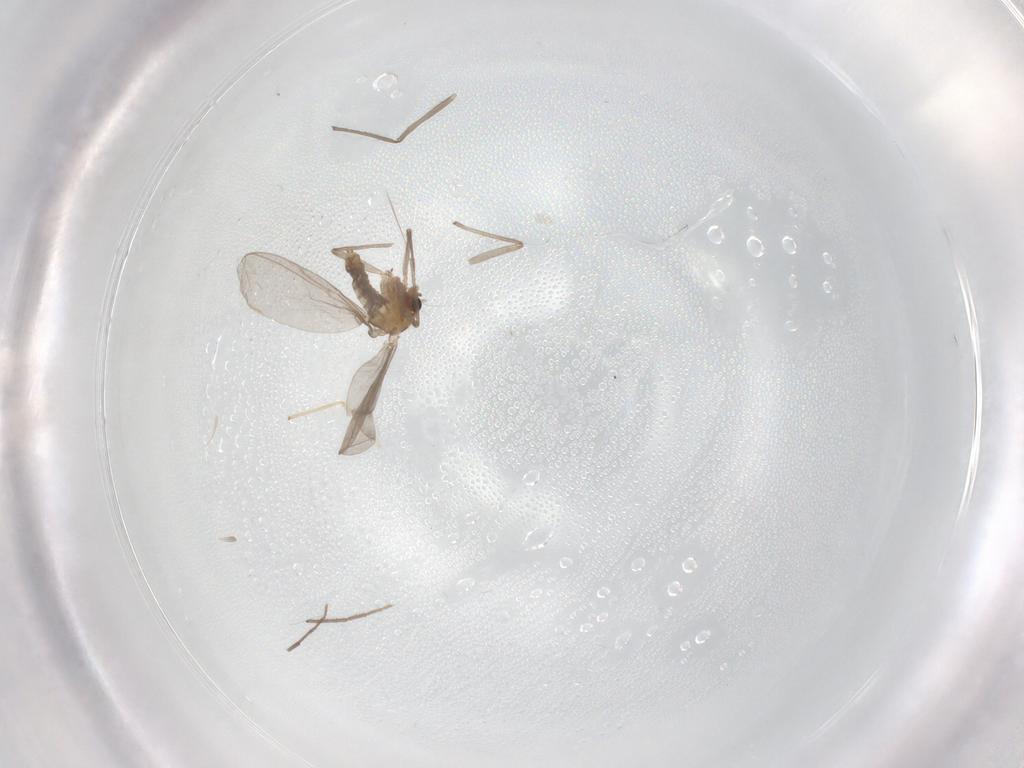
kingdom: Animalia
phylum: Arthropoda
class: Insecta
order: Diptera
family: Chironomidae
